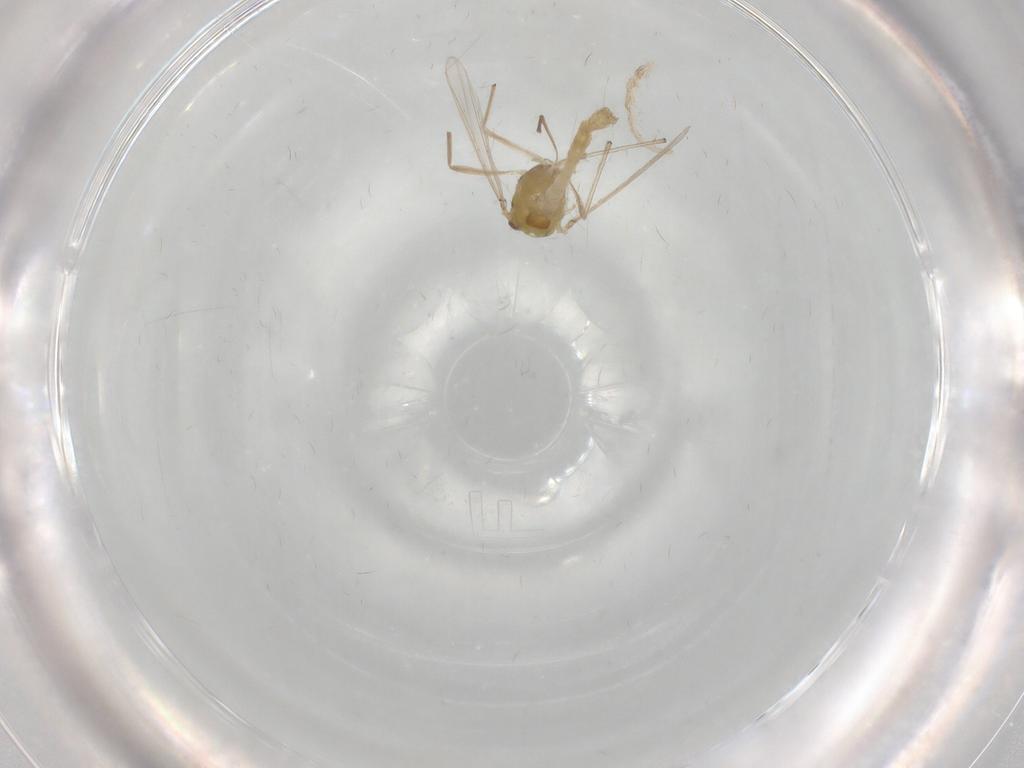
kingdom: Animalia
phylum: Arthropoda
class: Insecta
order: Diptera
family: Chironomidae
